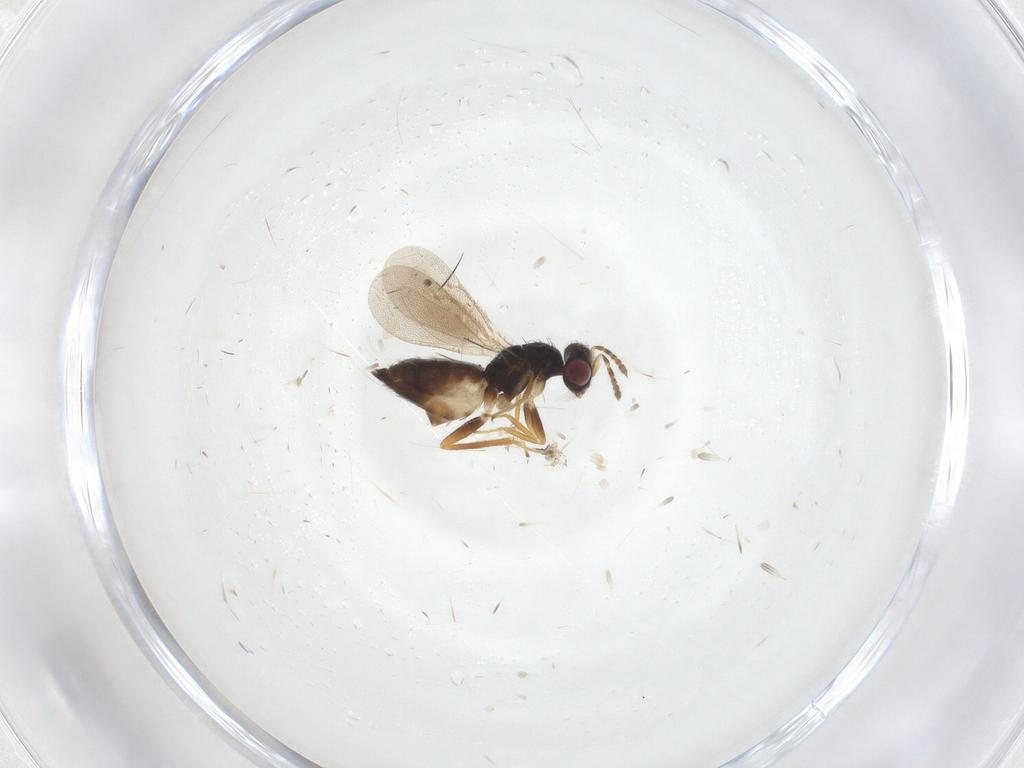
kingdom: Animalia
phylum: Arthropoda
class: Insecta
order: Hymenoptera
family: Eulophidae
